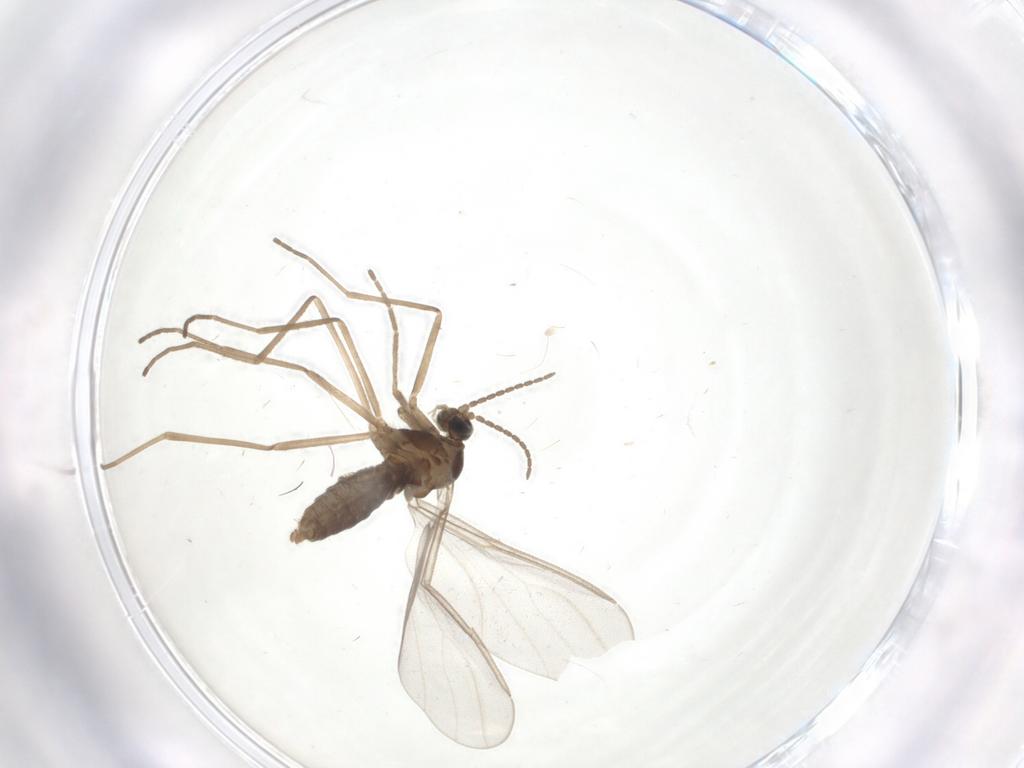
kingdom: Animalia
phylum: Arthropoda
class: Insecta
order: Diptera
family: Cecidomyiidae
